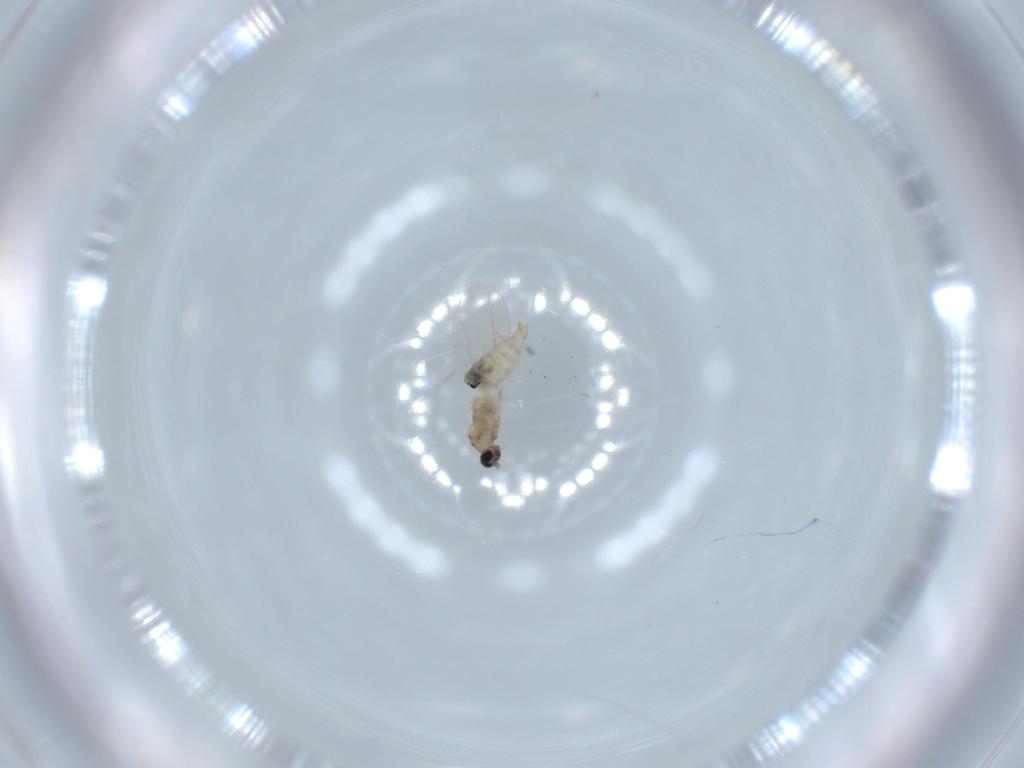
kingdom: Animalia
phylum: Arthropoda
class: Insecta
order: Diptera
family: Cecidomyiidae
